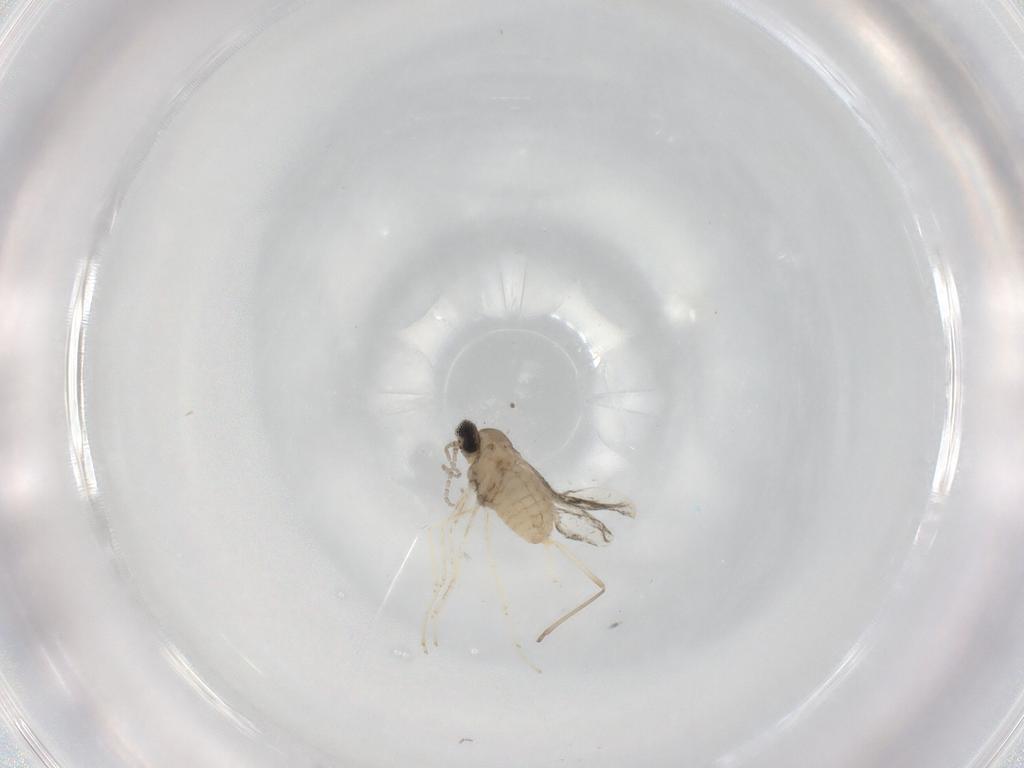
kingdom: Animalia
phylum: Arthropoda
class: Insecta
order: Diptera
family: Cecidomyiidae
